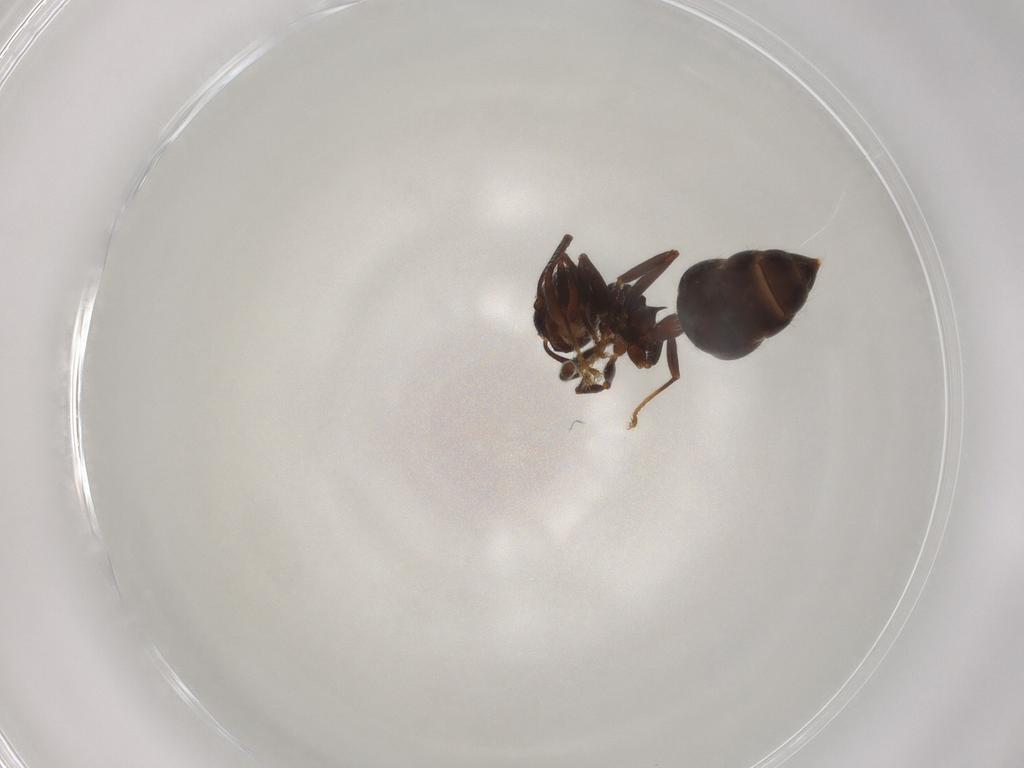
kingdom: Animalia
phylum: Arthropoda
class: Insecta
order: Hymenoptera
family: Formicidae
